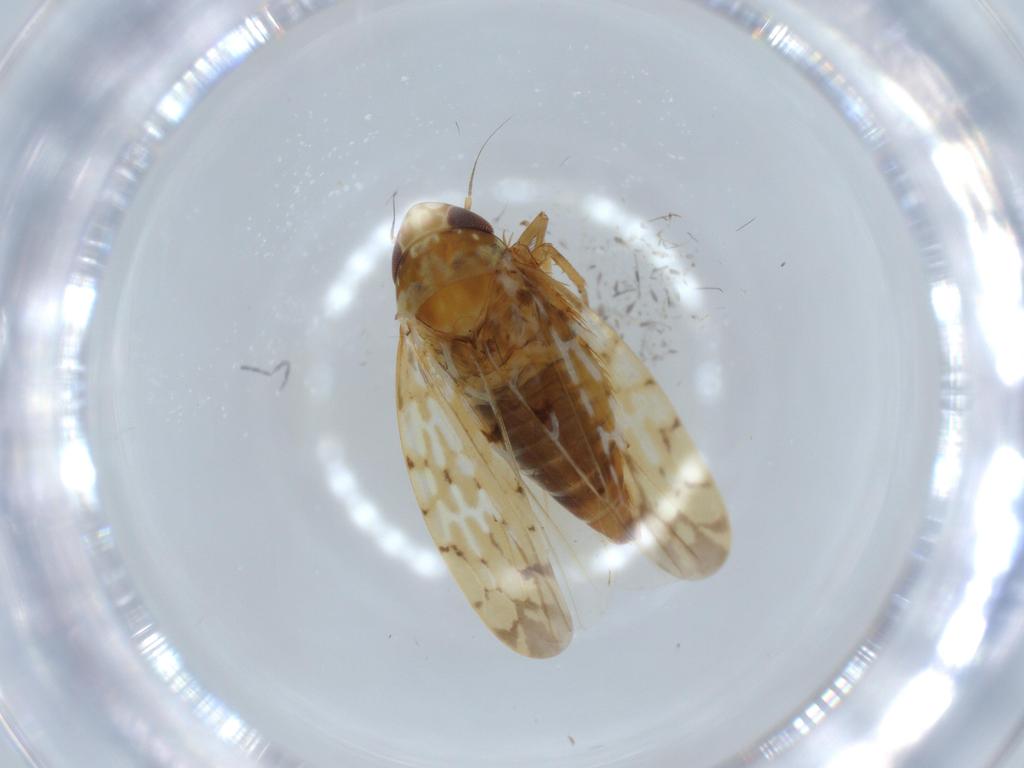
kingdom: Animalia
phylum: Arthropoda
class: Insecta
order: Hemiptera
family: Cicadellidae
